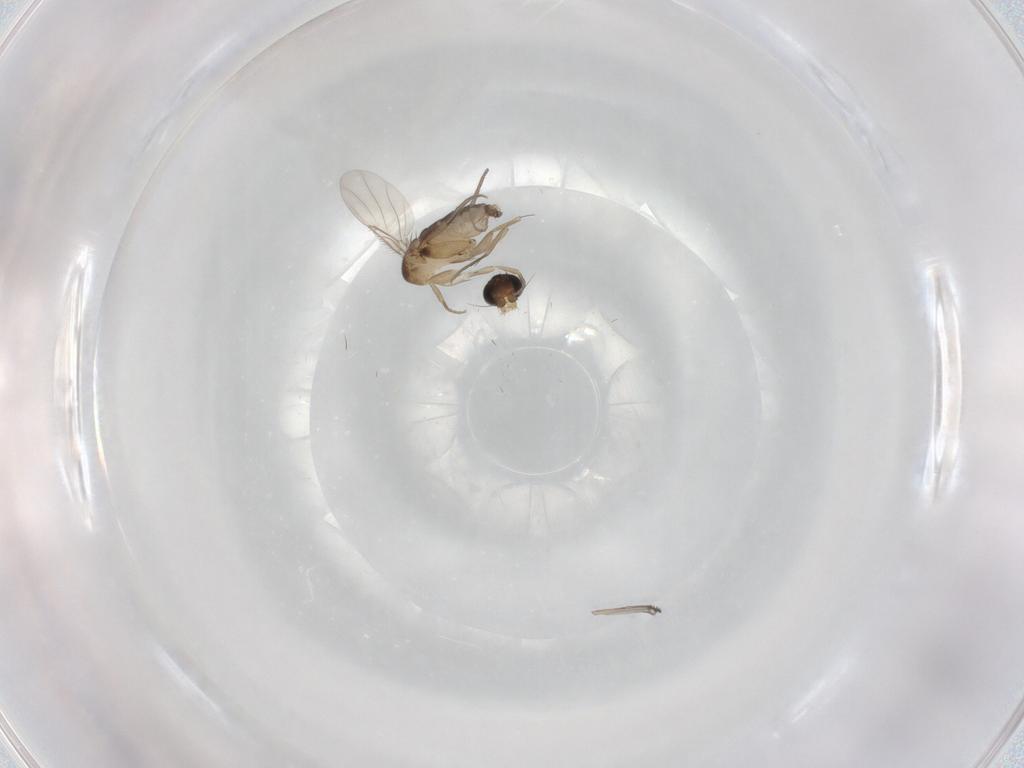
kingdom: Animalia
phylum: Arthropoda
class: Insecta
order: Diptera
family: Phoridae
